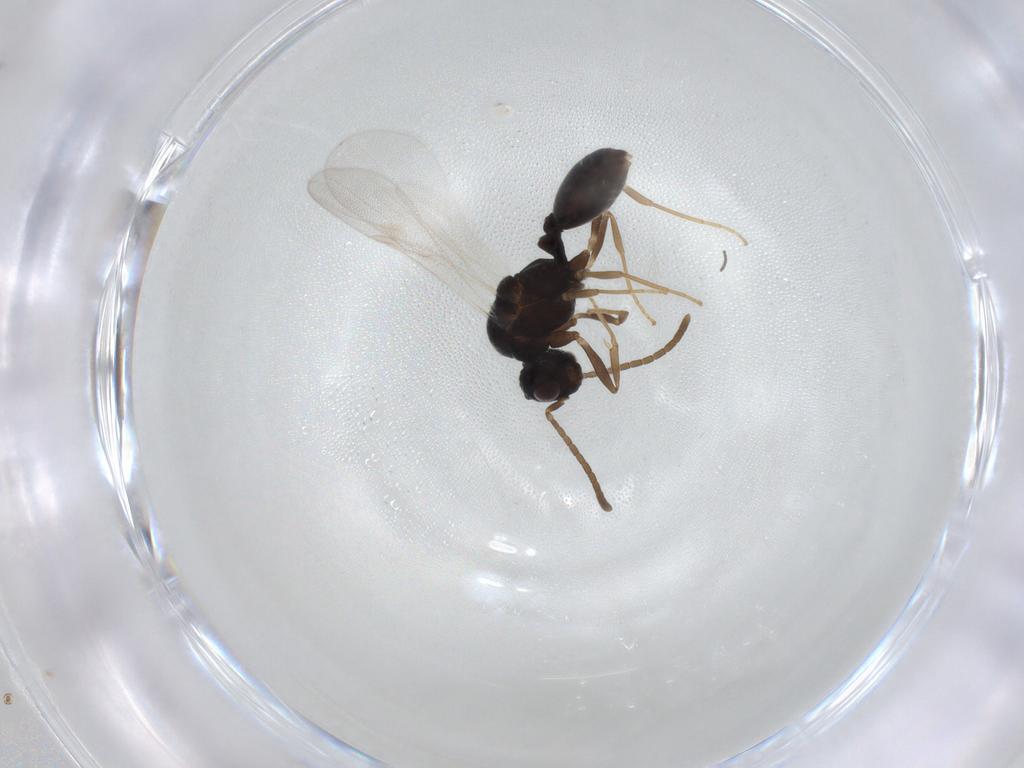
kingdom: Animalia
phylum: Arthropoda
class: Insecta
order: Hymenoptera
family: Formicidae
